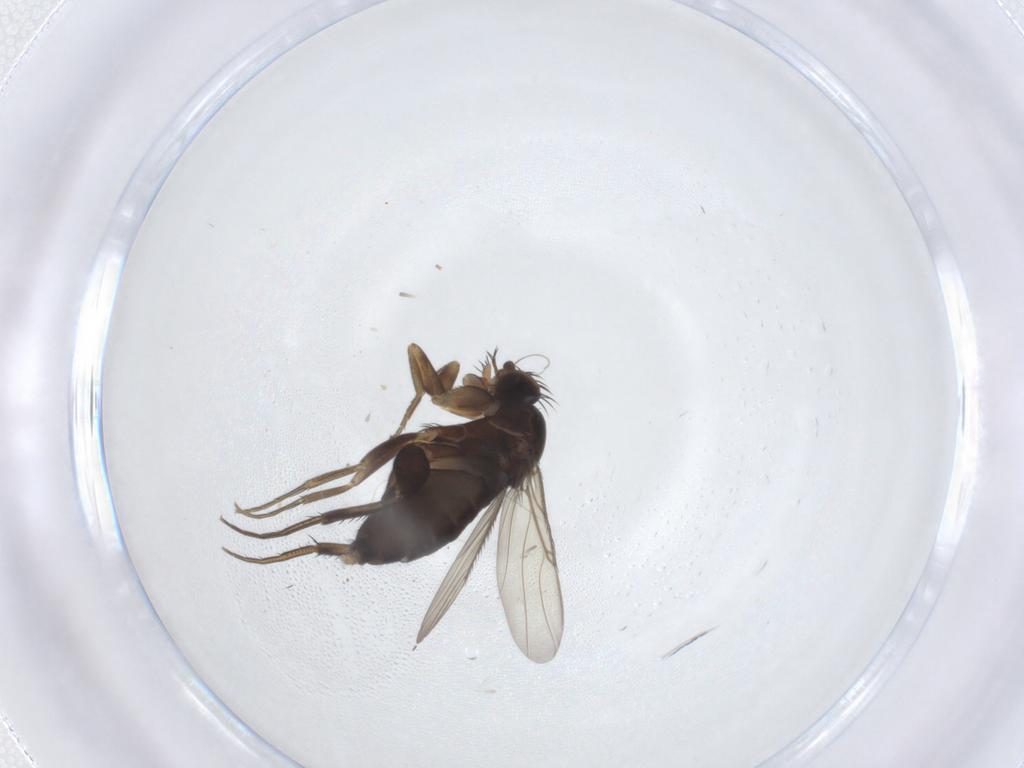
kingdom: Animalia
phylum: Arthropoda
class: Insecta
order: Diptera
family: Phoridae
